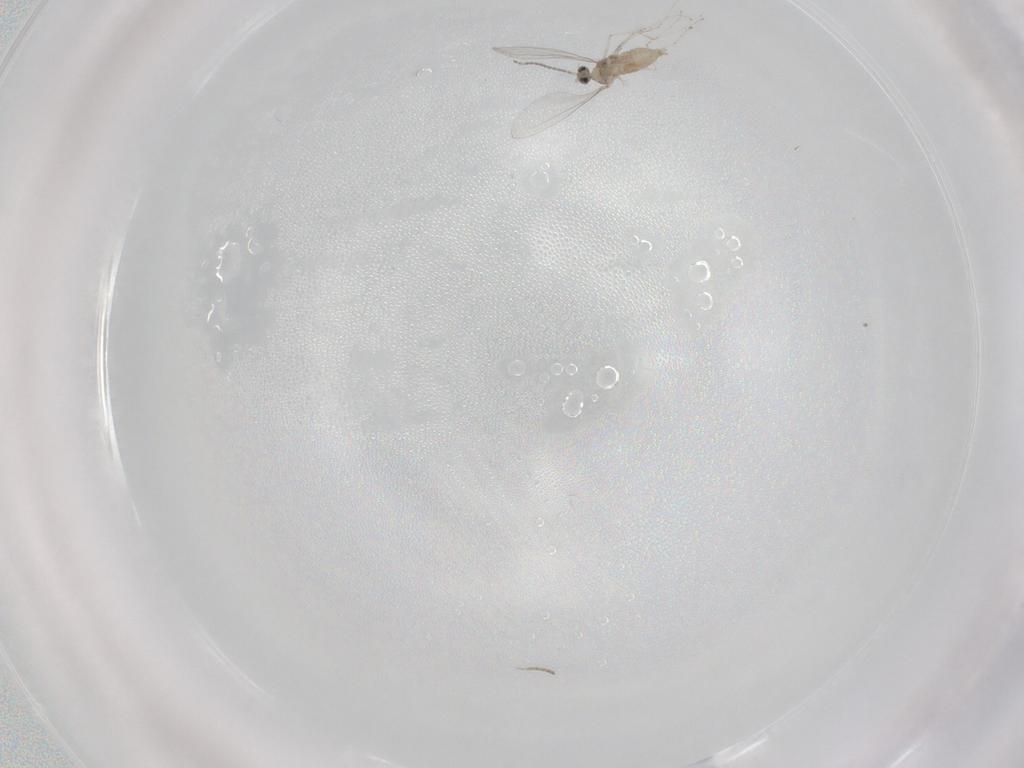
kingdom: Animalia
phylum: Arthropoda
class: Insecta
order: Diptera
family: Cecidomyiidae
